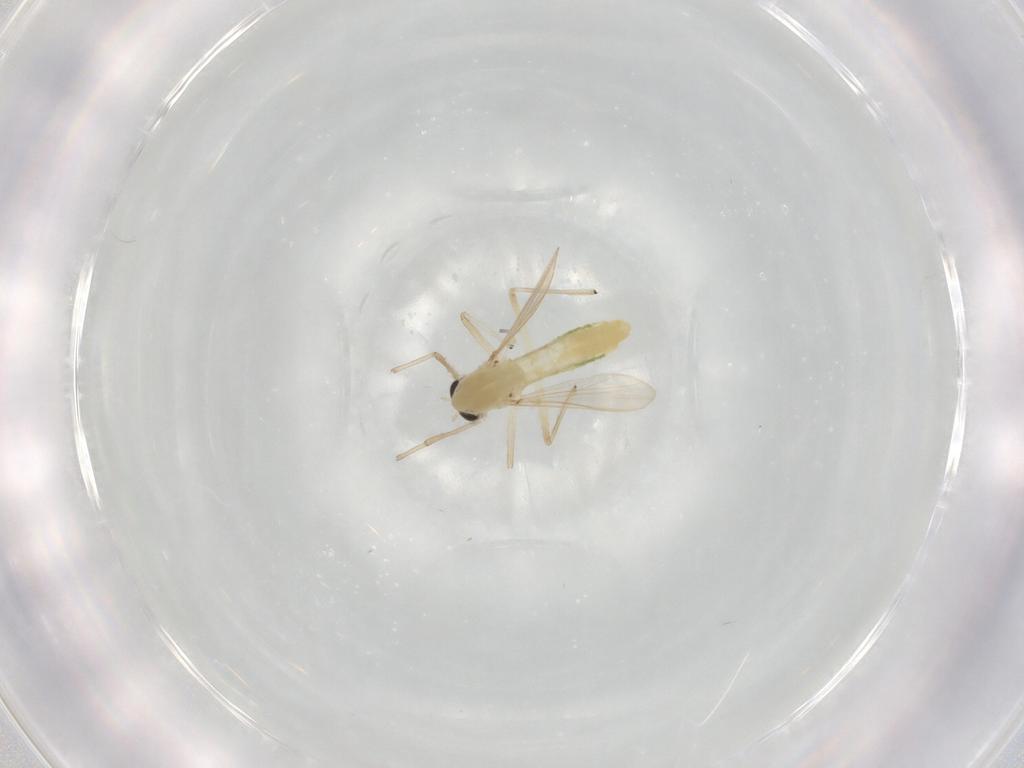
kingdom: Animalia
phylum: Arthropoda
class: Insecta
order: Diptera
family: Chironomidae
